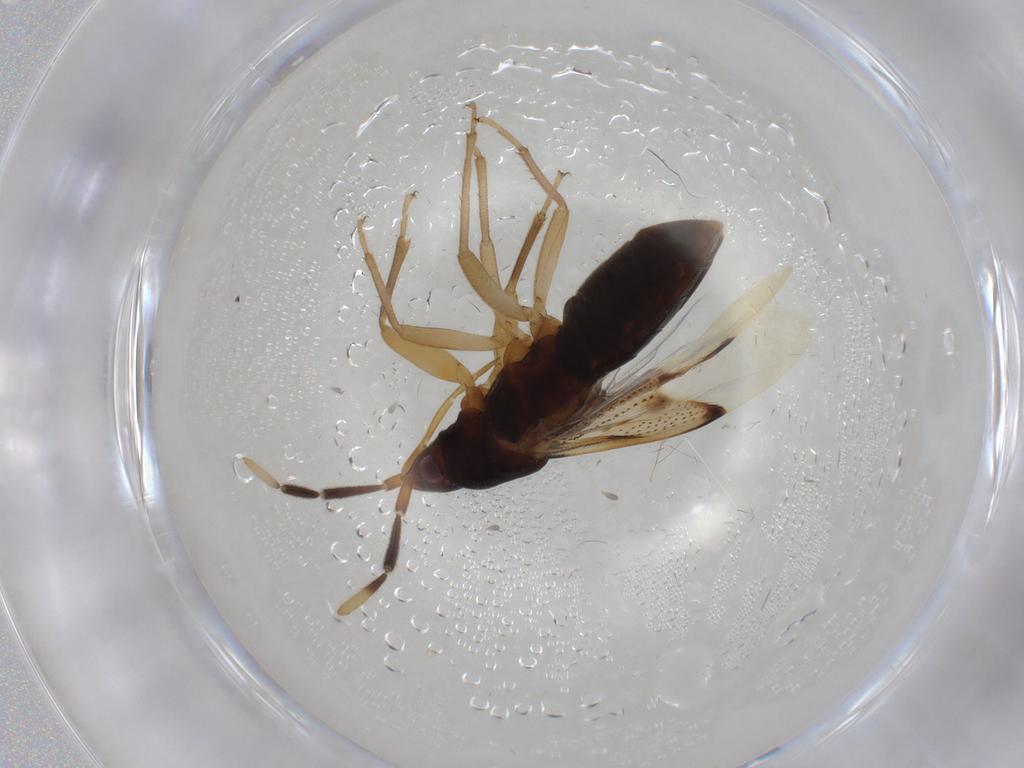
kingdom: Animalia
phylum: Arthropoda
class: Insecta
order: Hemiptera
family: Rhyparochromidae
